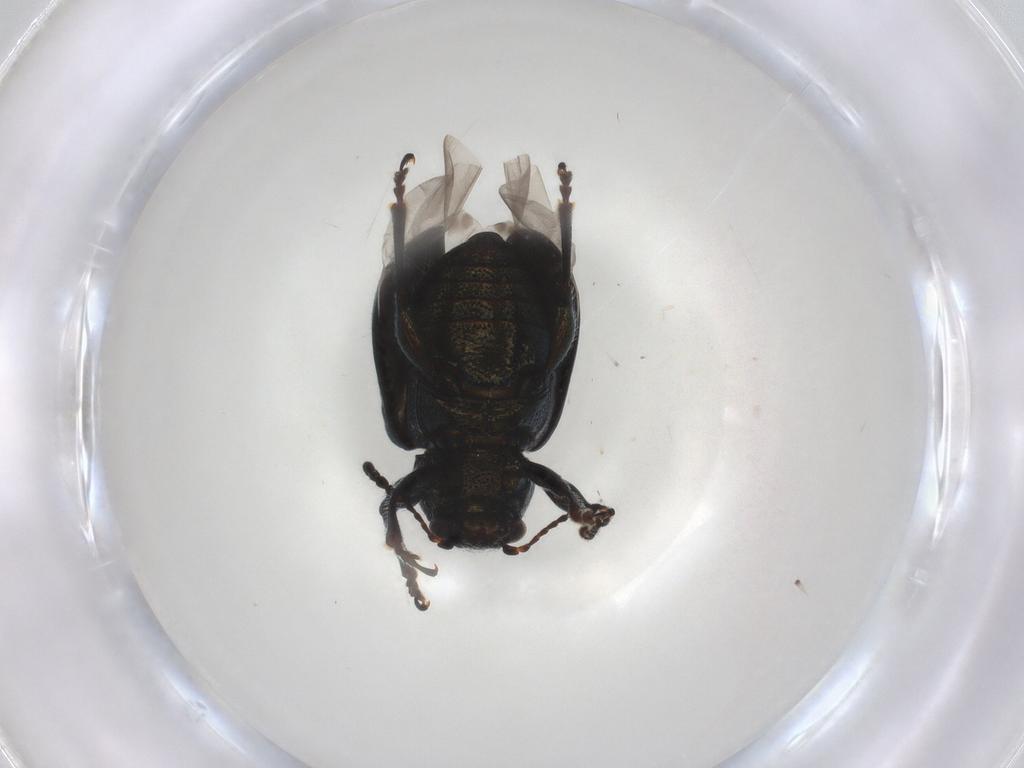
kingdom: Animalia
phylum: Arthropoda
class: Insecta
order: Coleoptera
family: Chrysomelidae
